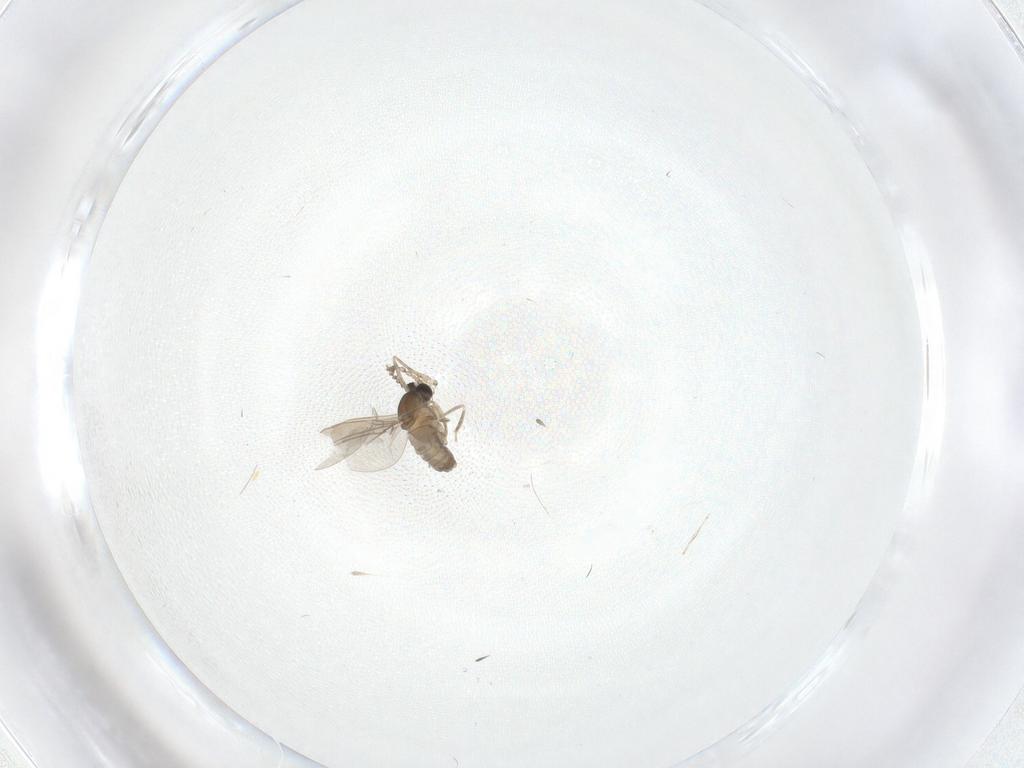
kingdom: Animalia
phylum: Arthropoda
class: Insecta
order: Diptera
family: Cecidomyiidae
